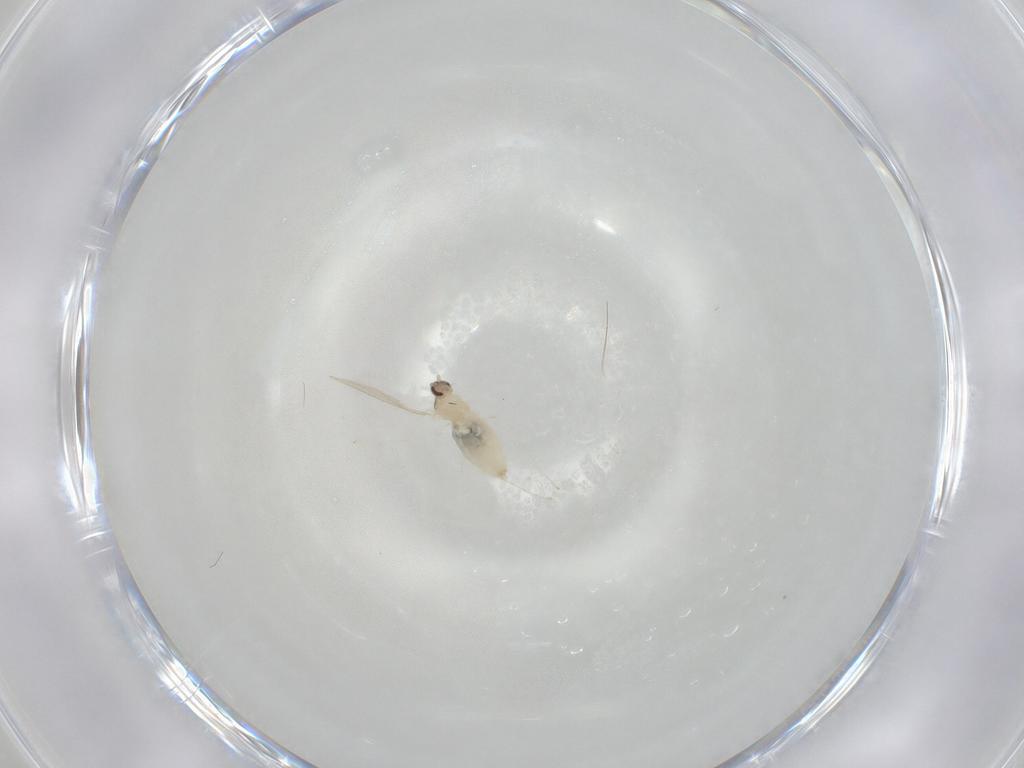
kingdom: Animalia
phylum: Arthropoda
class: Insecta
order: Diptera
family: Cecidomyiidae
